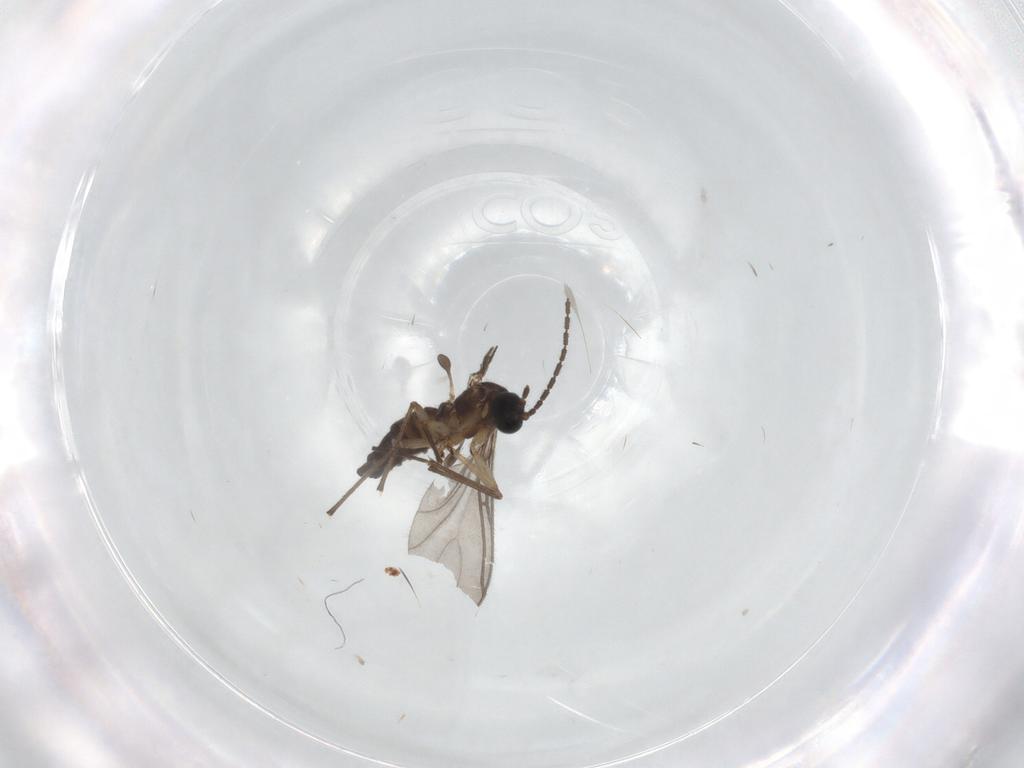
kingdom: Animalia
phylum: Arthropoda
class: Insecta
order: Diptera
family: Sciaridae
